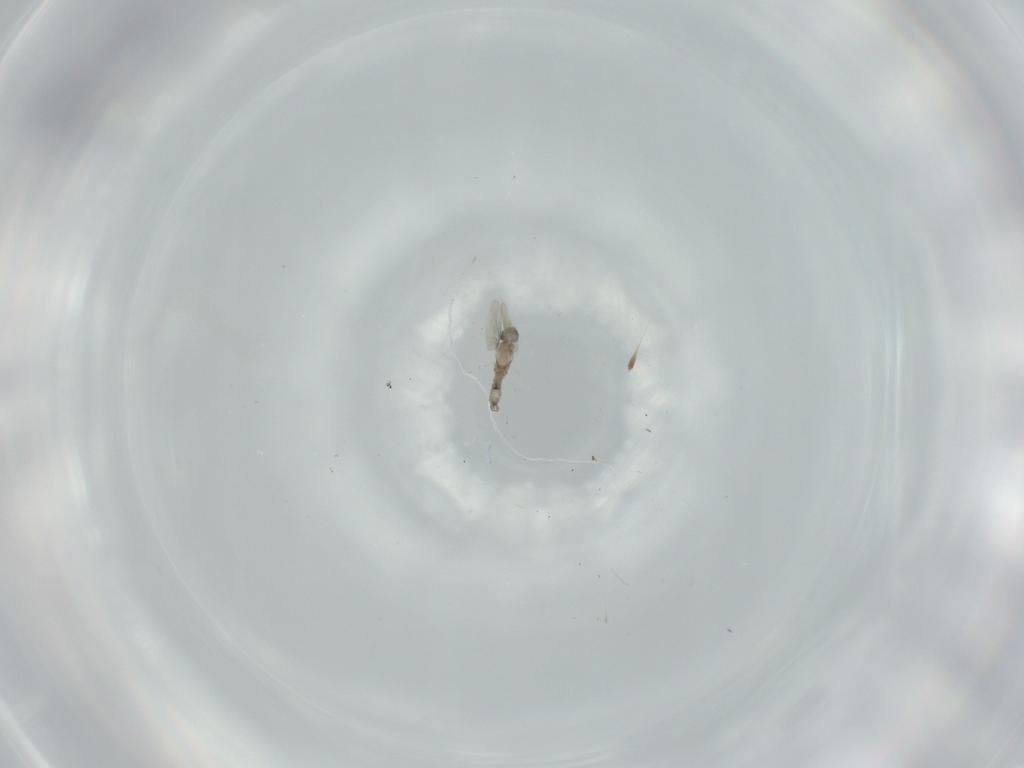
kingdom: Animalia
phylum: Arthropoda
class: Insecta
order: Diptera
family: Cecidomyiidae
